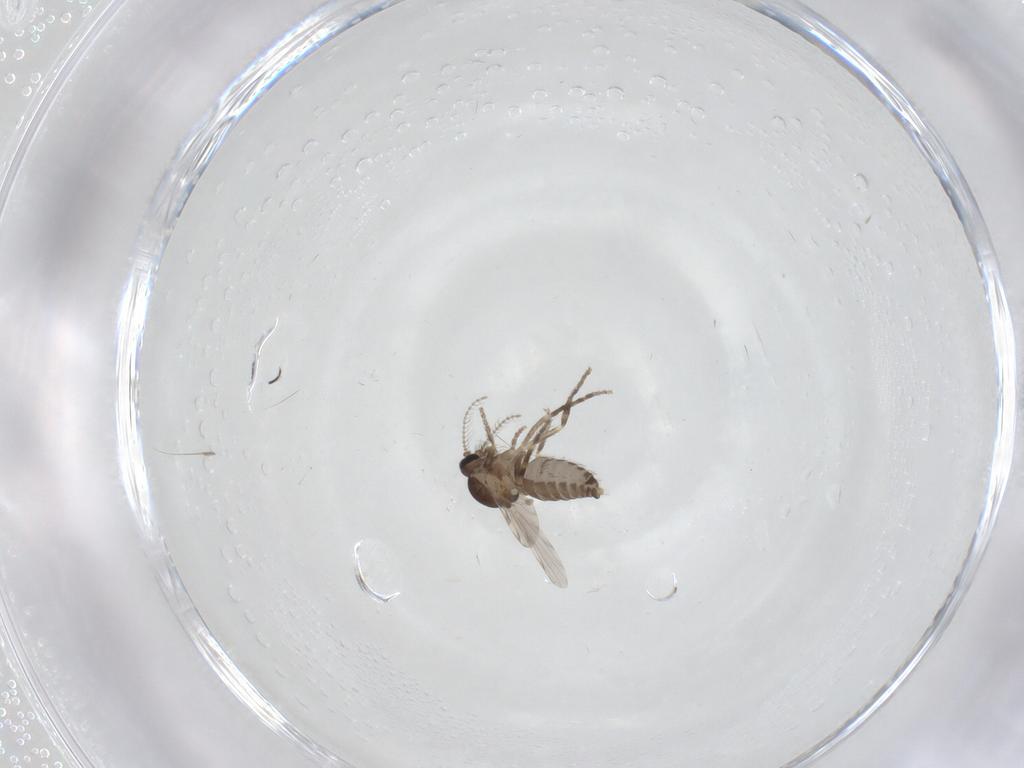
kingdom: Animalia
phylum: Arthropoda
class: Insecta
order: Diptera
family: Ceratopogonidae
